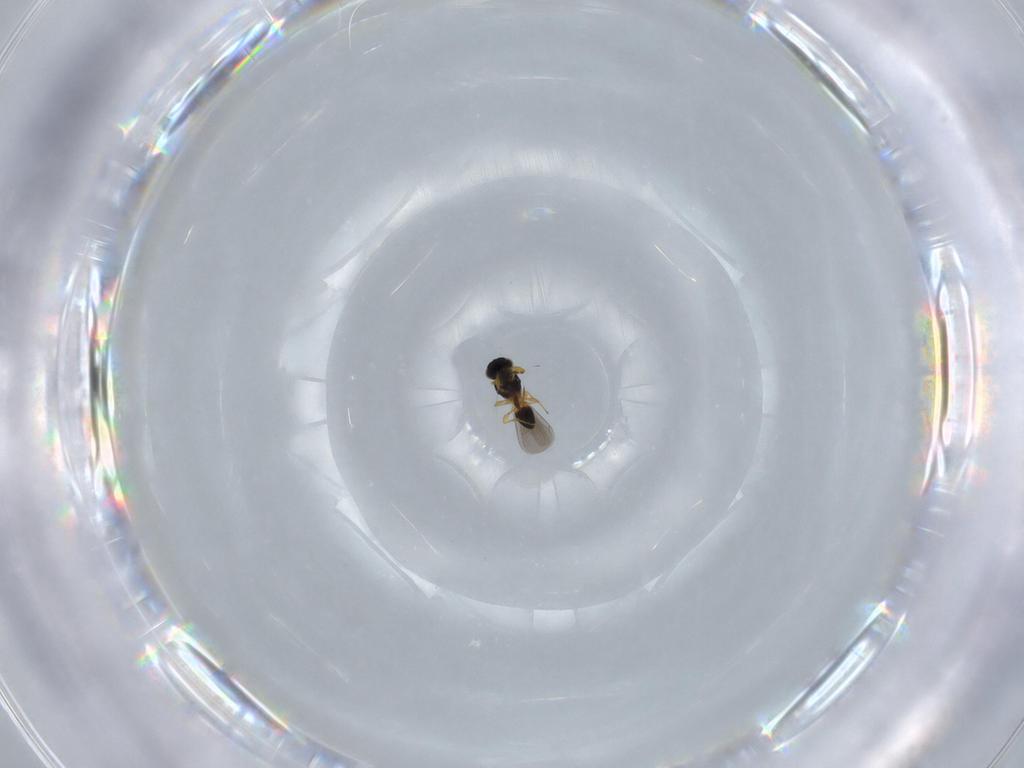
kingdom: Animalia
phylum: Arthropoda
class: Insecta
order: Hymenoptera
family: Platygastridae
